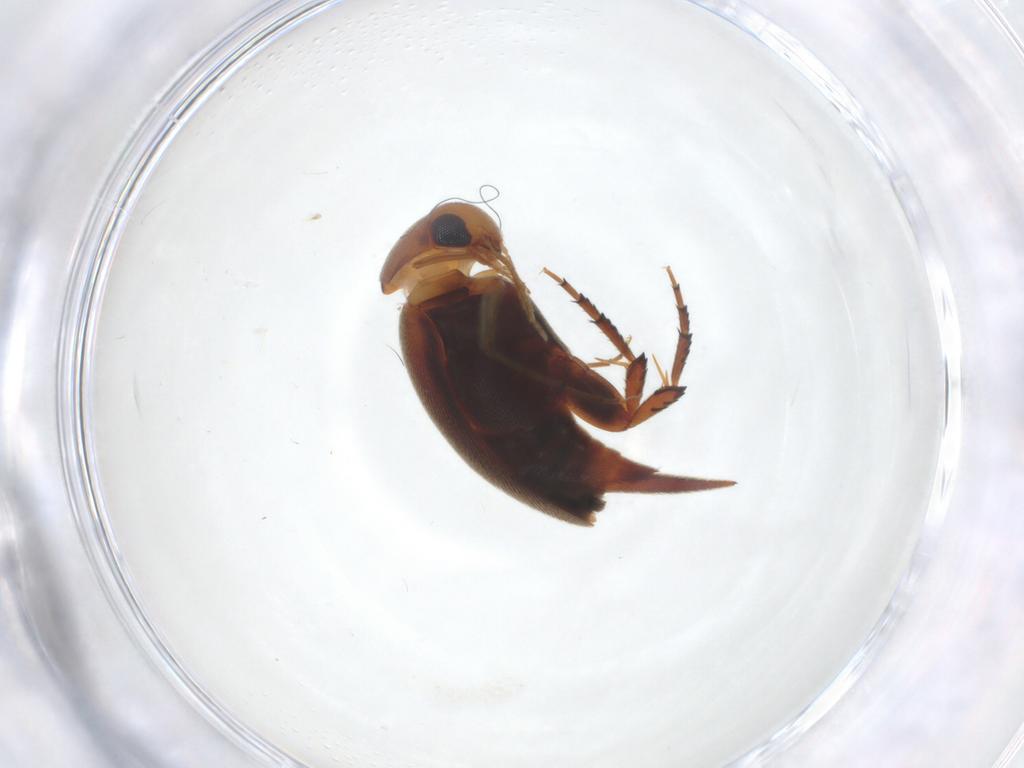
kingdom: Animalia
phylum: Arthropoda
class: Insecta
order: Coleoptera
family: Mordellidae
